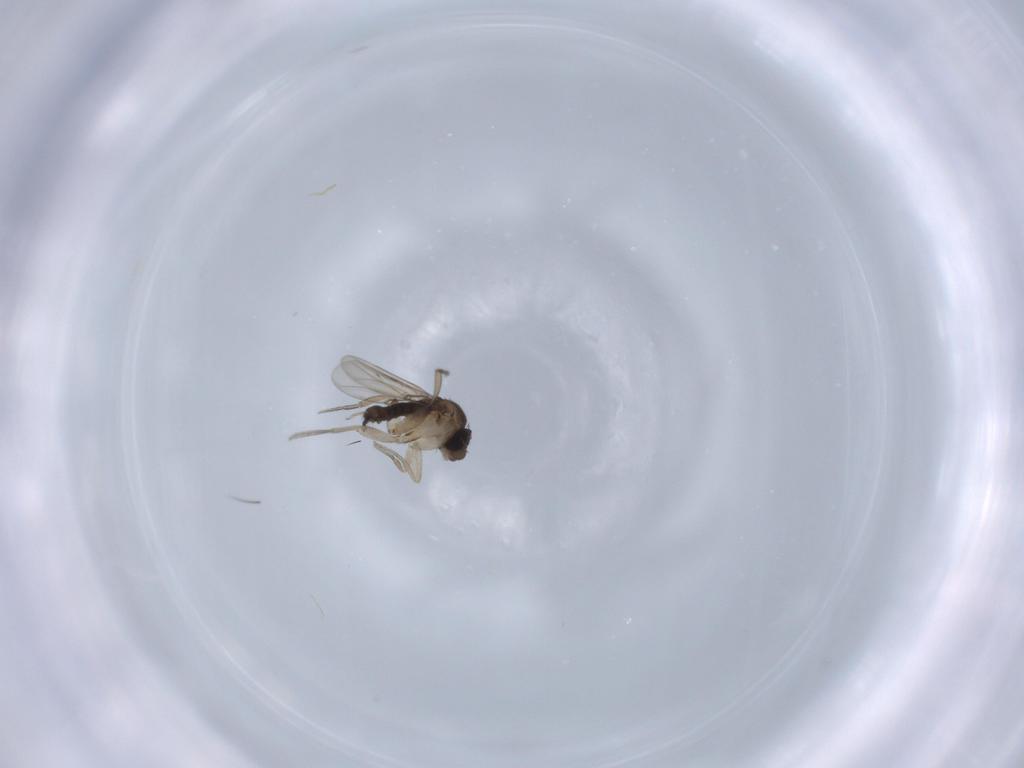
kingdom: Animalia
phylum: Arthropoda
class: Insecta
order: Diptera
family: Phoridae
